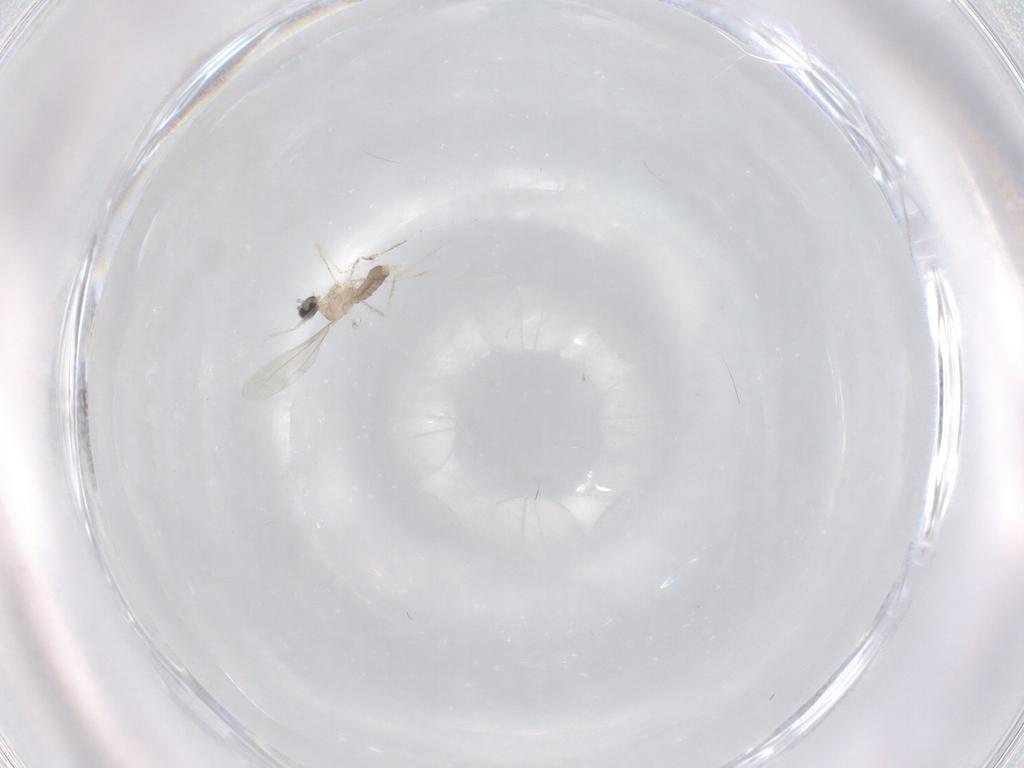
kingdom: Animalia
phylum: Arthropoda
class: Insecta
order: Diptera
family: Cecidomyiidae
